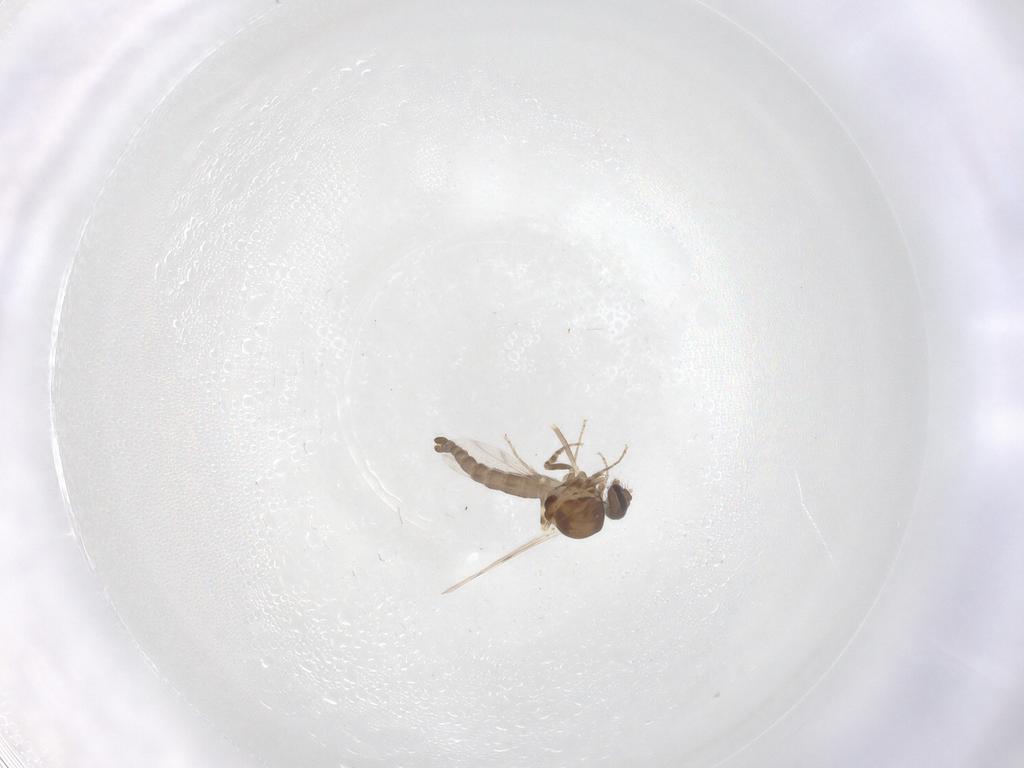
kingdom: Animalia
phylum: Arthropoda
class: Insecta
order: Diptera
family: Ceratopogonidae
